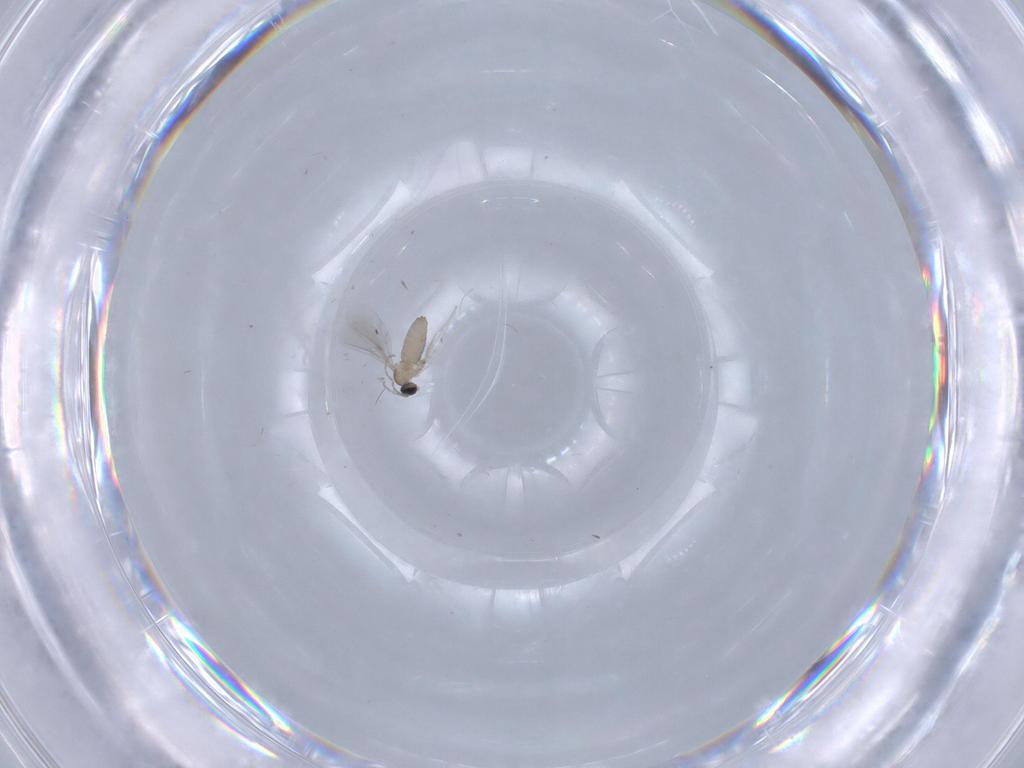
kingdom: Animalia
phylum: Arthropoda
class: Insecta
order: Diptera
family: Cecidomyiidae
